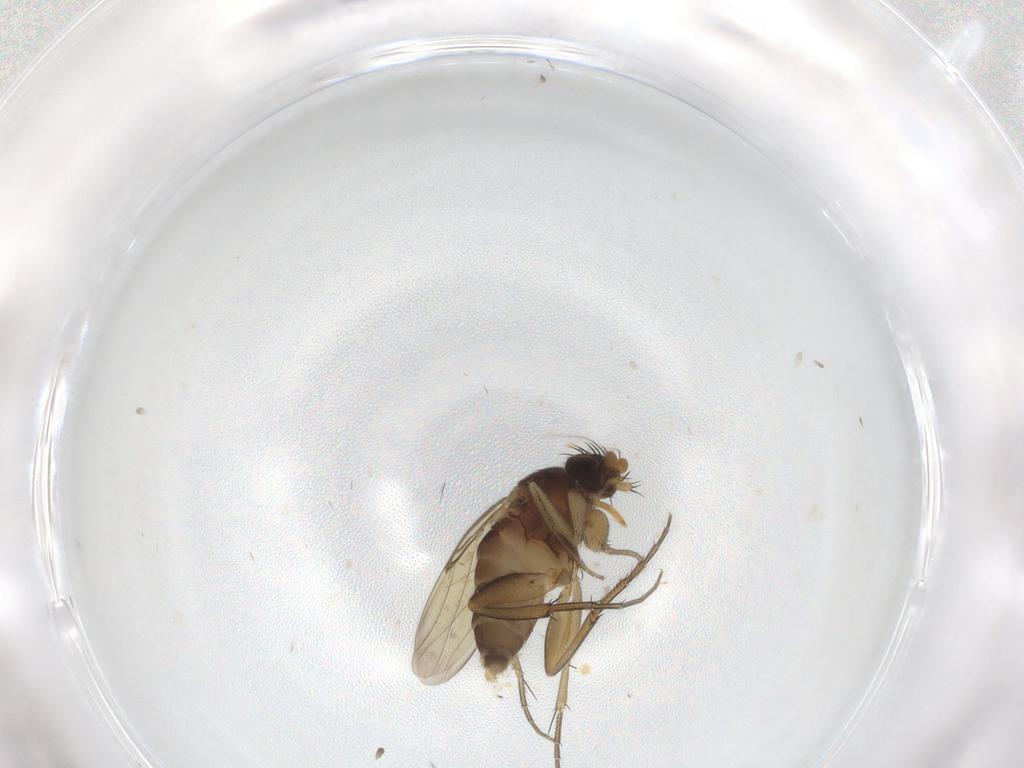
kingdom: Animalia
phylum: Arthropoda
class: Insecta
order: Diptera
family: Phoridae
